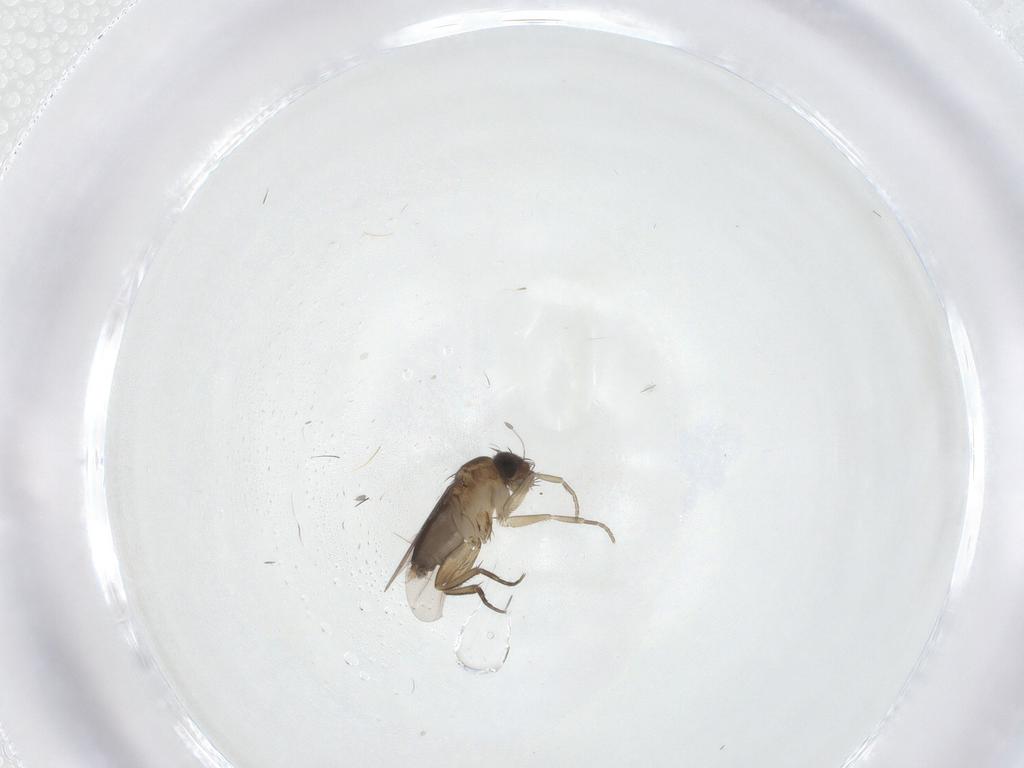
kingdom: Animalia
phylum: Arthropoda
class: Insecta
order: Diptera
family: Phoridae
